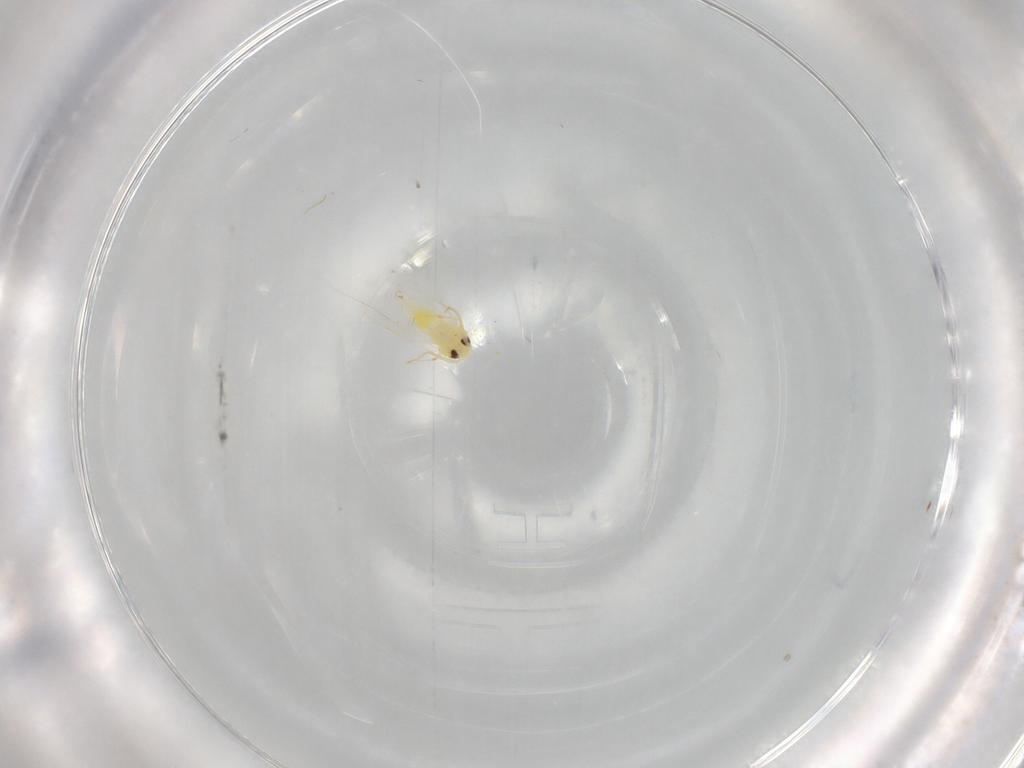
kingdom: Animalia
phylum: Arthropoda
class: Insecta
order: Hemiptera
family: Aleyrodidae
